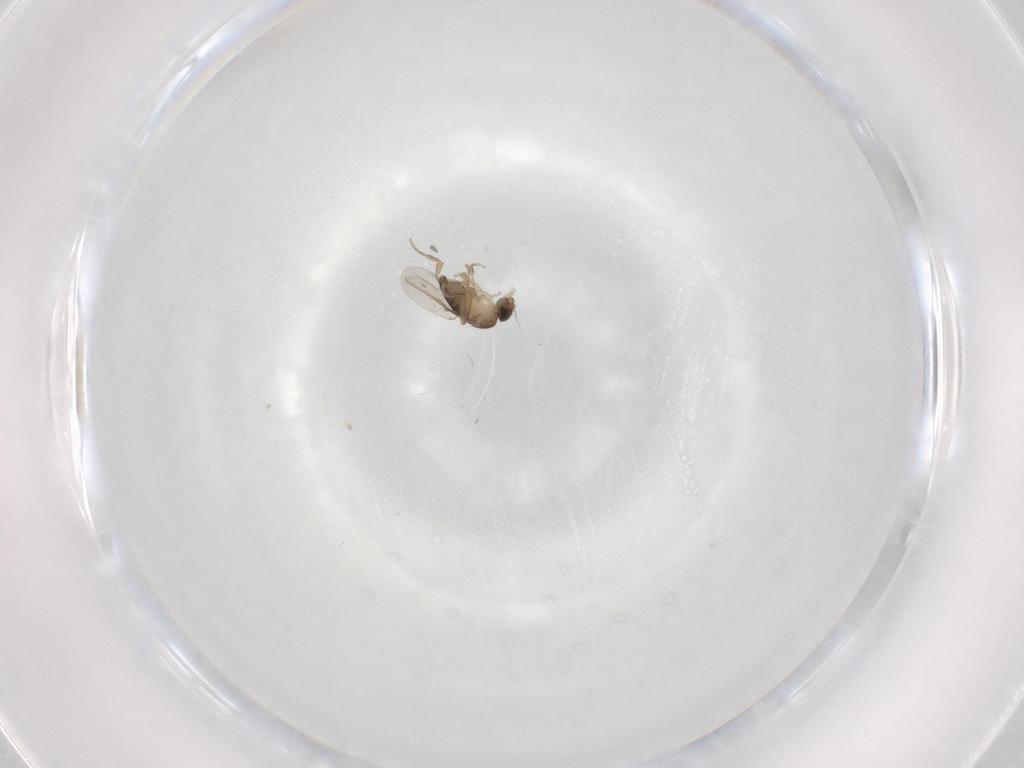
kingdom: Animalia
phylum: Arthropoda
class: Insecta
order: Diptera
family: Phoridae
